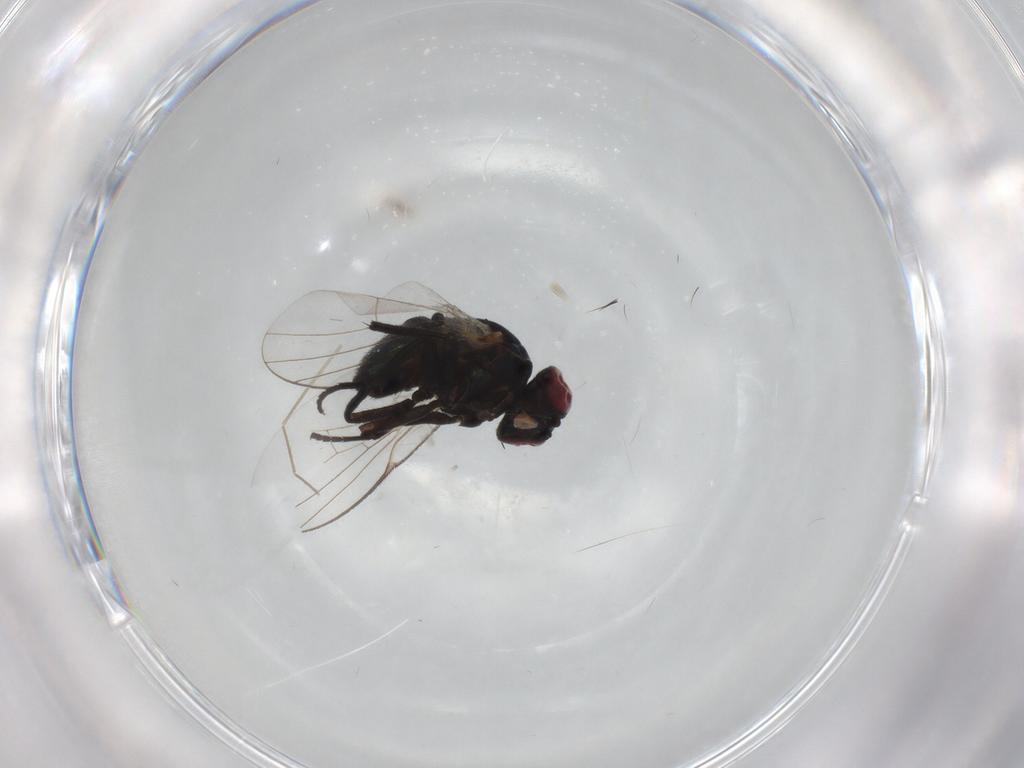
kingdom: Animalia
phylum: Arthropoda
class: Insecta
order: Diptera
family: Agromyzidae
